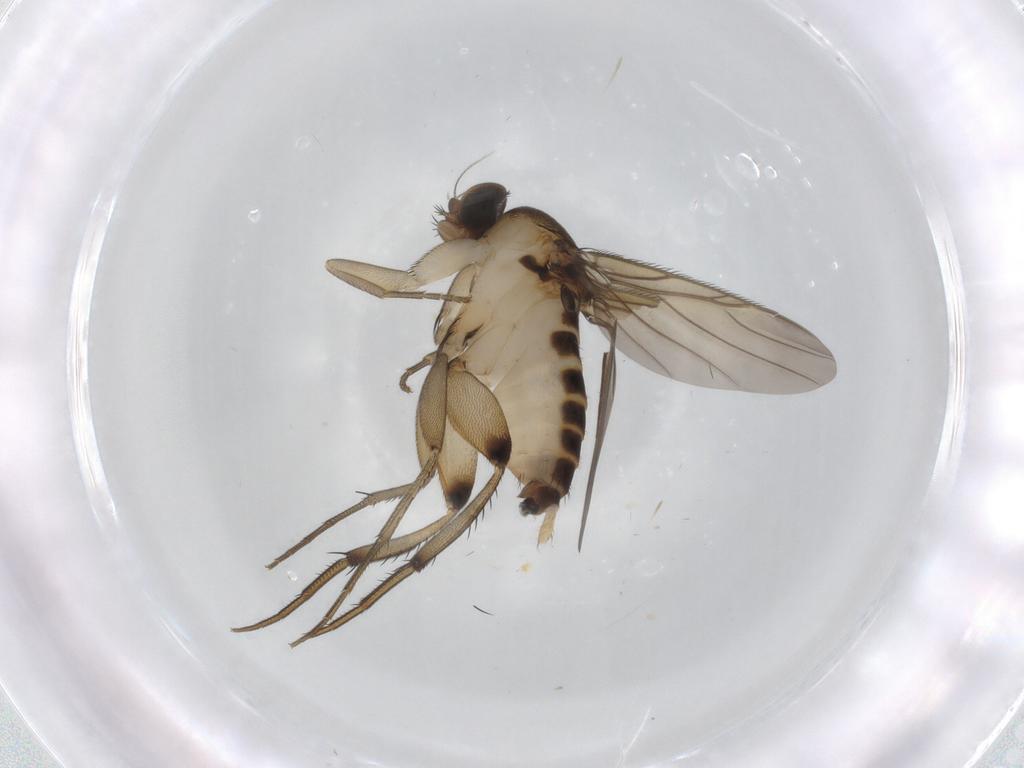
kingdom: Animalia
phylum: Arthropoda
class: Insecta
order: Diptera
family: Phoridae
